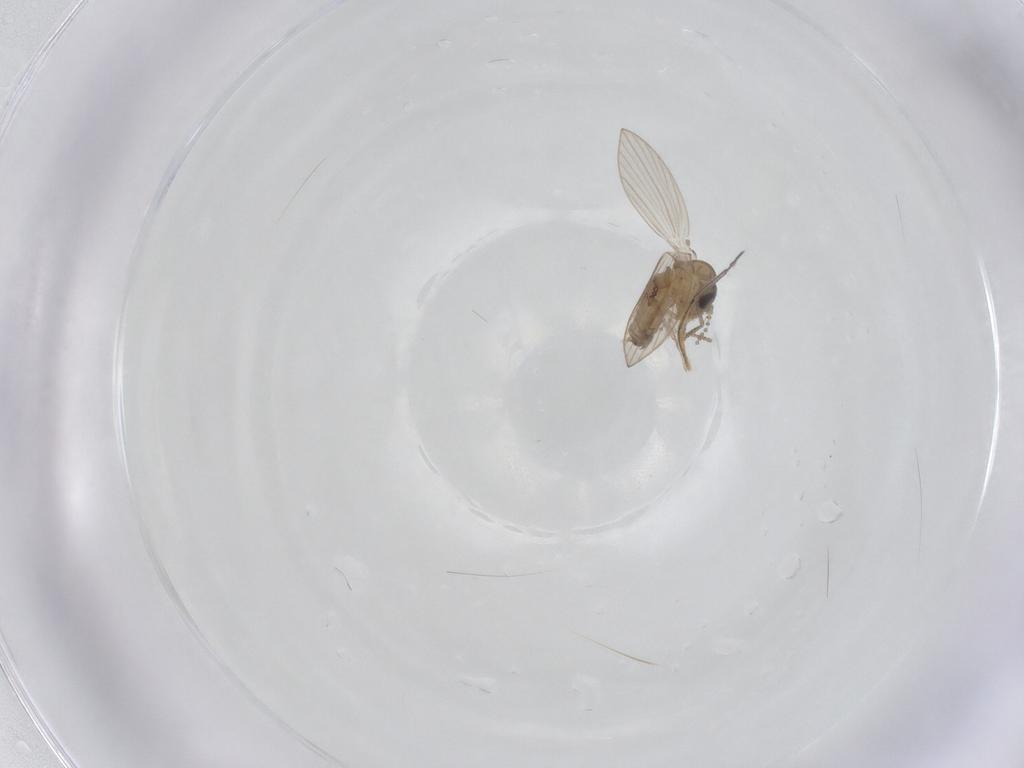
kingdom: Animalia
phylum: Arthropoda
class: Insecta
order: Diptera
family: Psychodidae
